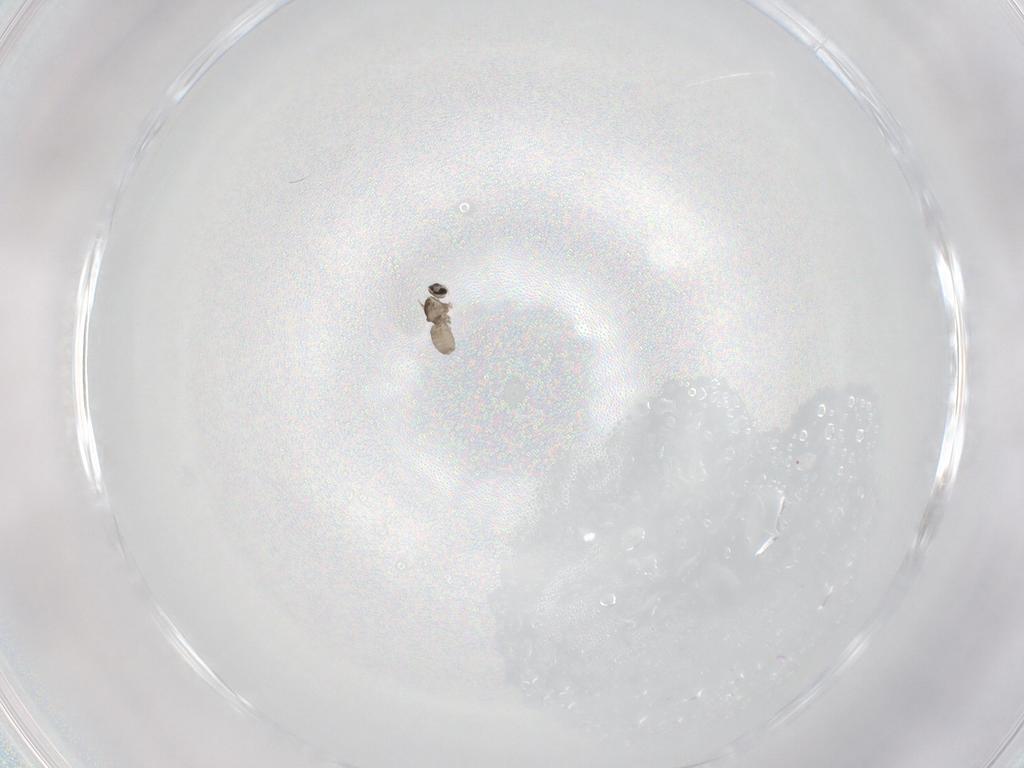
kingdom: Animalia
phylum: Arthropoda
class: Insecta
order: Diptera
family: Cecidomyiidae
